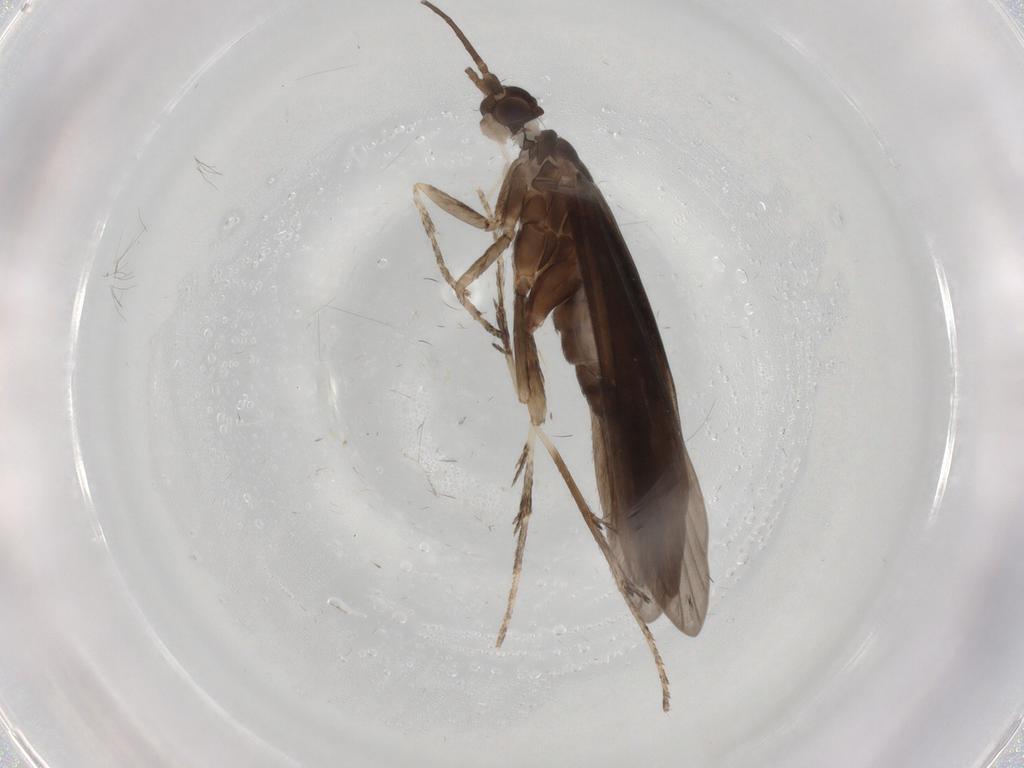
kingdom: Animalia
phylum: Arthropoda
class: Insecta
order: Trichoptera
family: Xiphocentronidae
